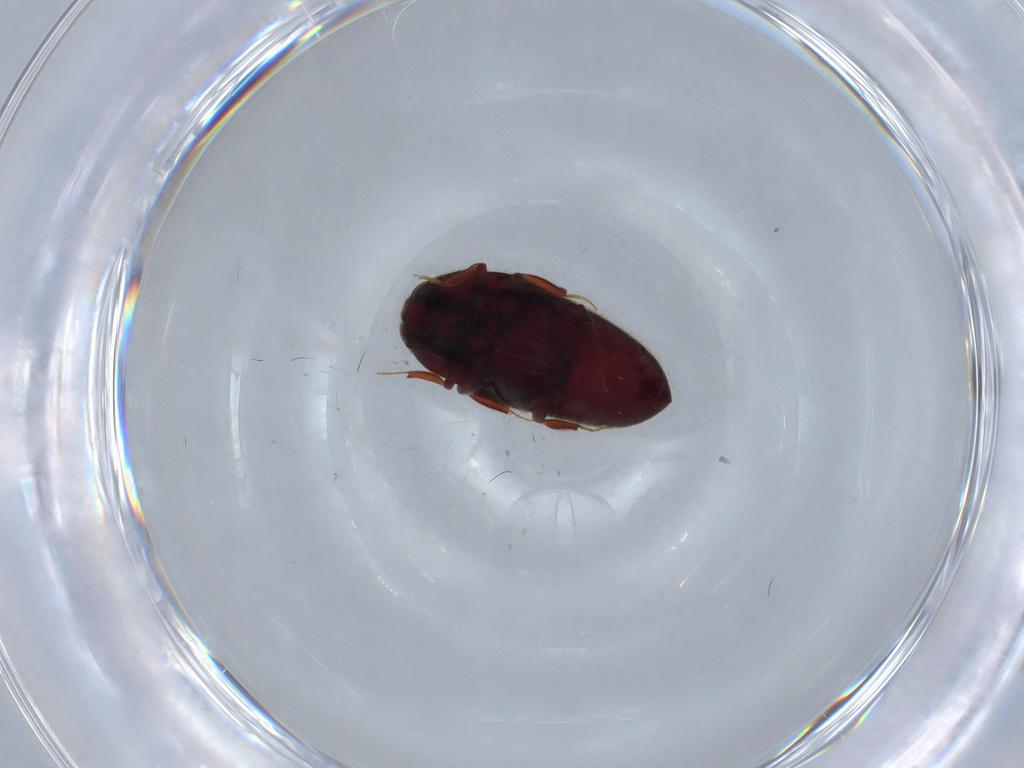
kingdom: Animalia
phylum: Arthropoda
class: Insecta
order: Coleoptera
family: Throscidae
